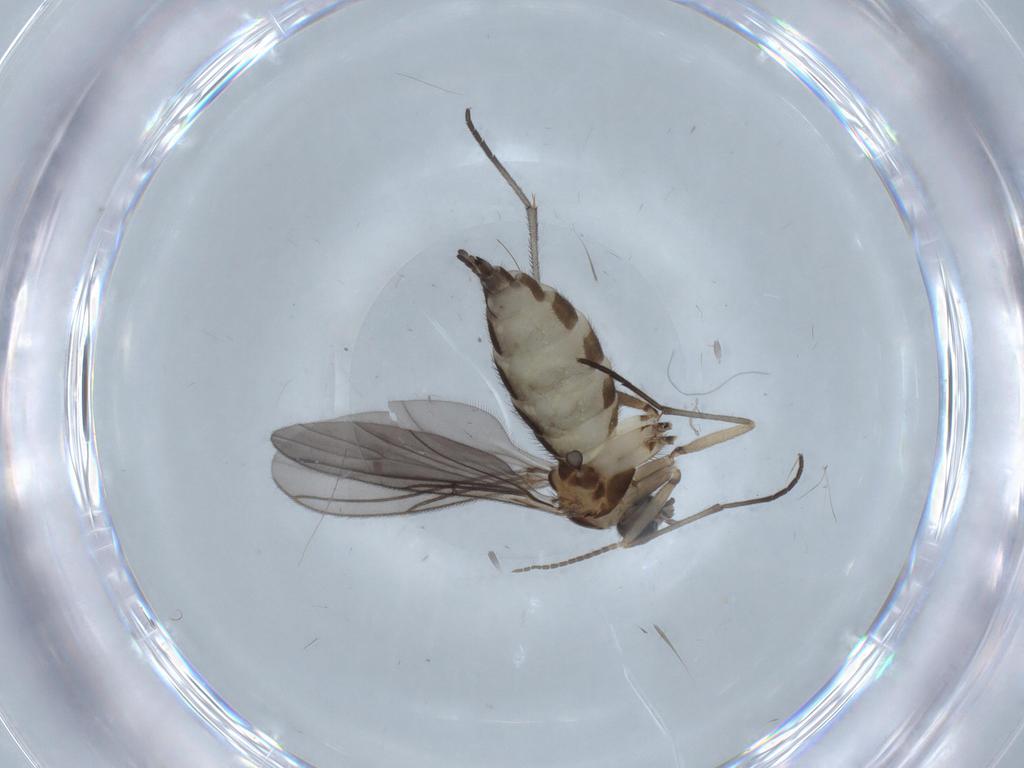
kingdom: Animalia
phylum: Arthropoda
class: Insecta
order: Diptera
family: Sciaridae
